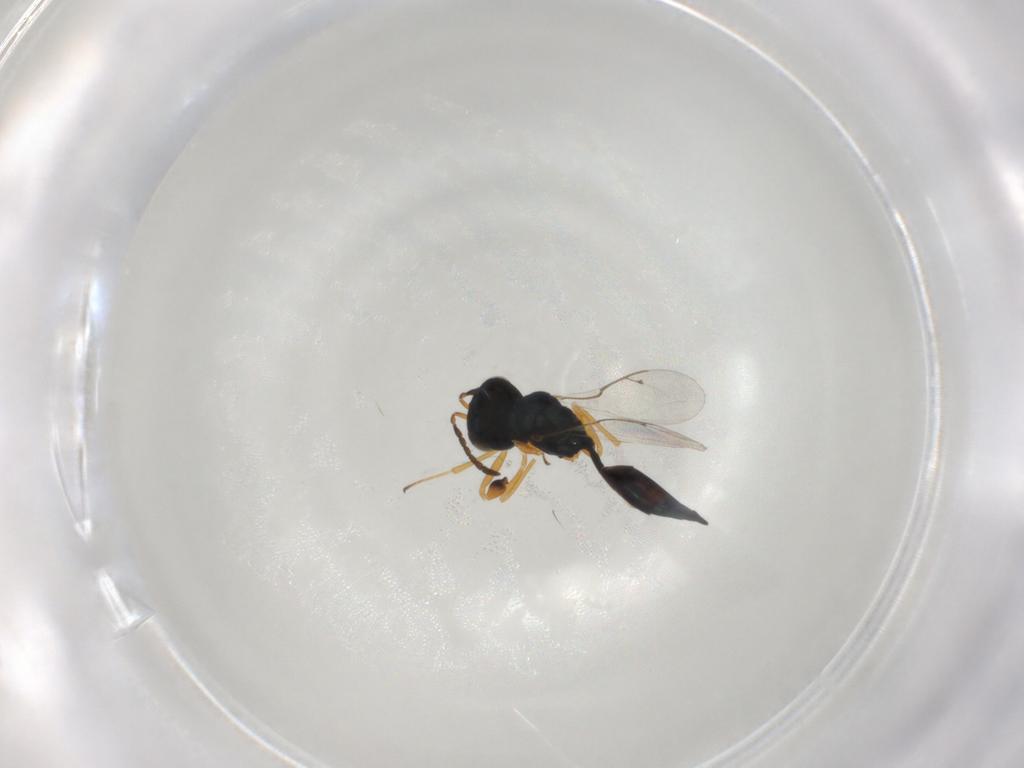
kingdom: Animalia
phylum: Arthropoda
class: Insecta
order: Hymenoptera
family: Pteromalidae
